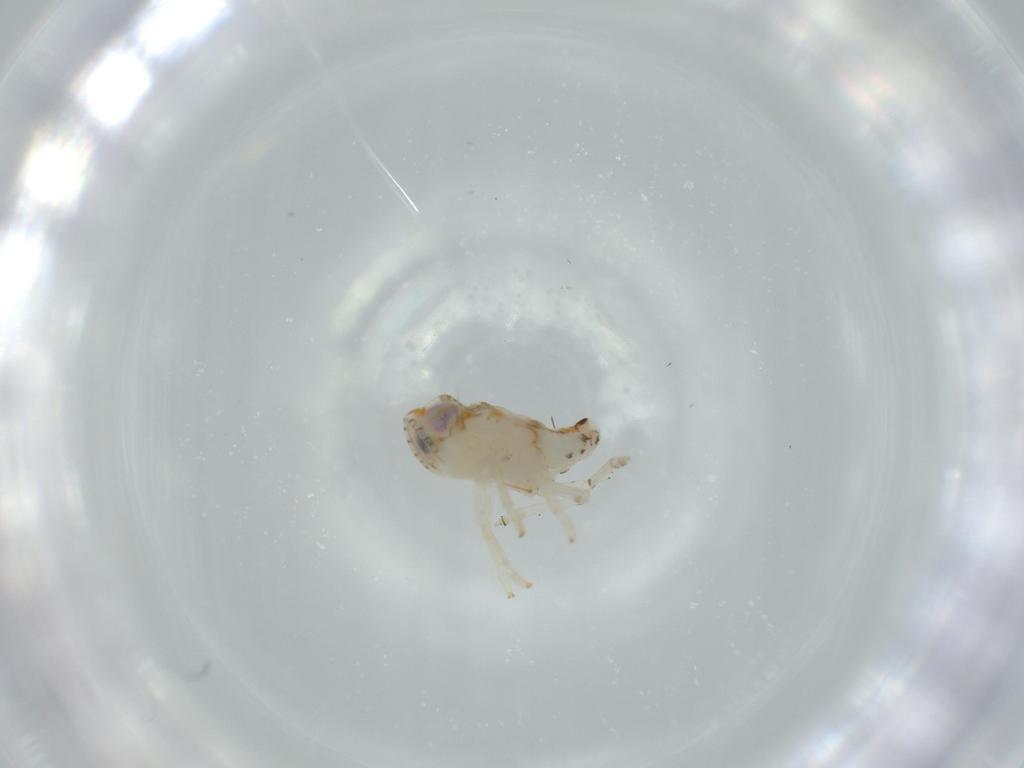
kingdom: Animalia
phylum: Arthropoda
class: Insecta
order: Hemiptera
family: Nogodinidae
